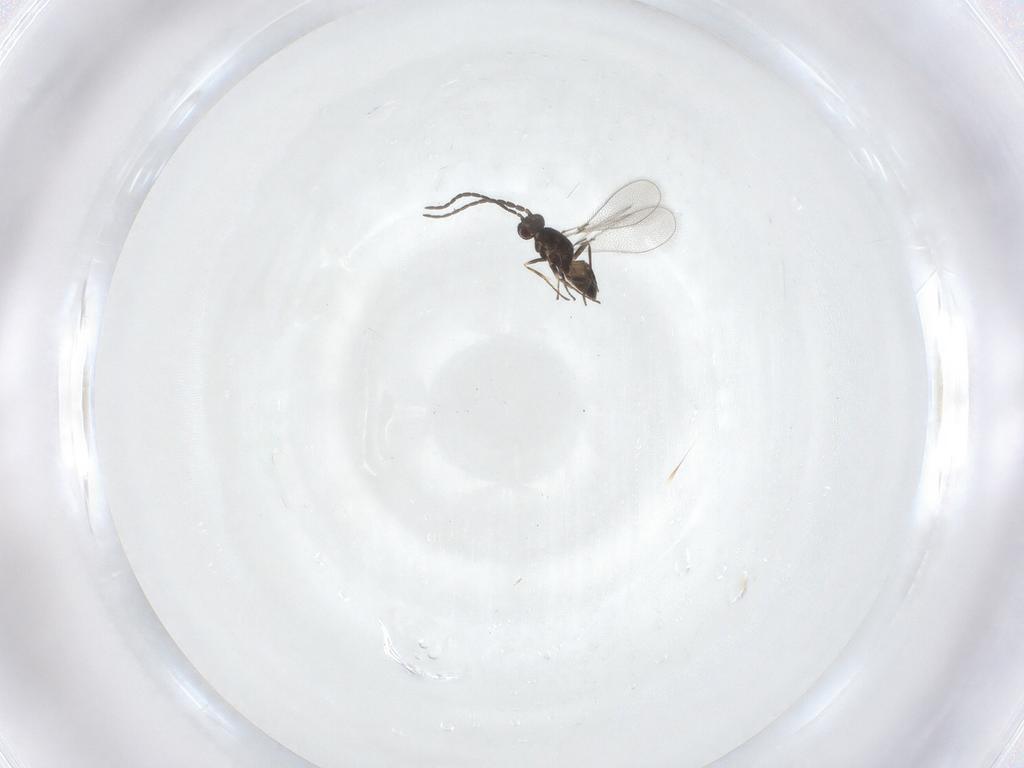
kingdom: Animalia
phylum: Arthropoda
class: Insecta
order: Hymenoptera
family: Mymaridae
